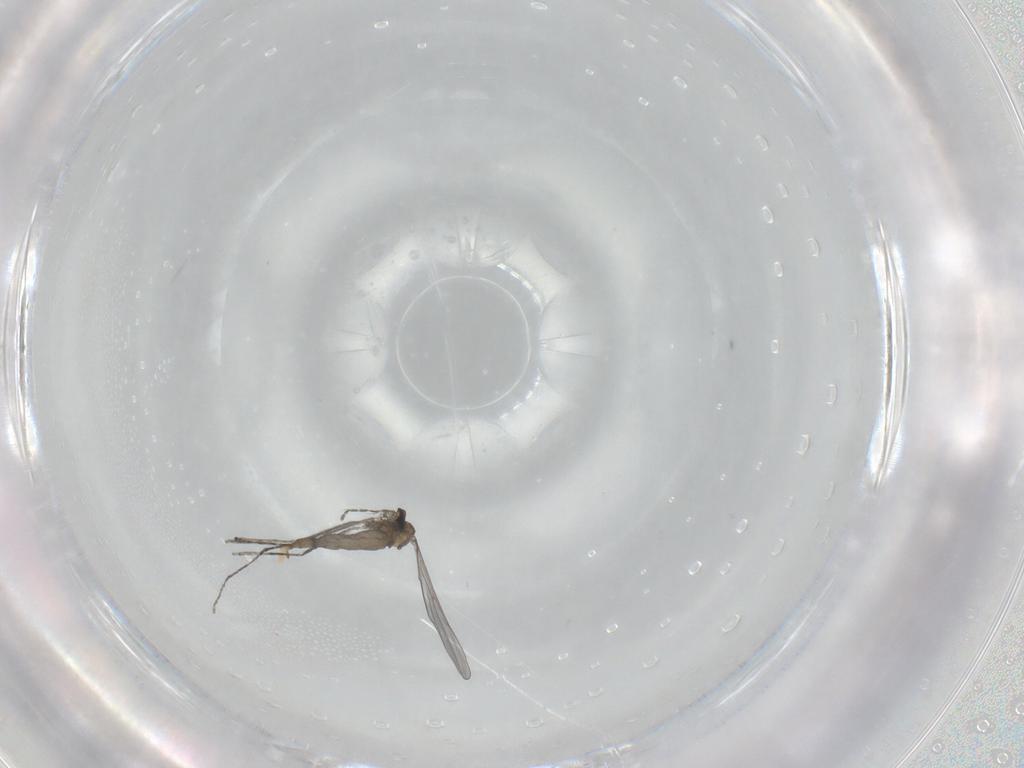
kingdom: Animalia
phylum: Arthropoda
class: Insecta
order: Diptera
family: Cecidomyiidae
